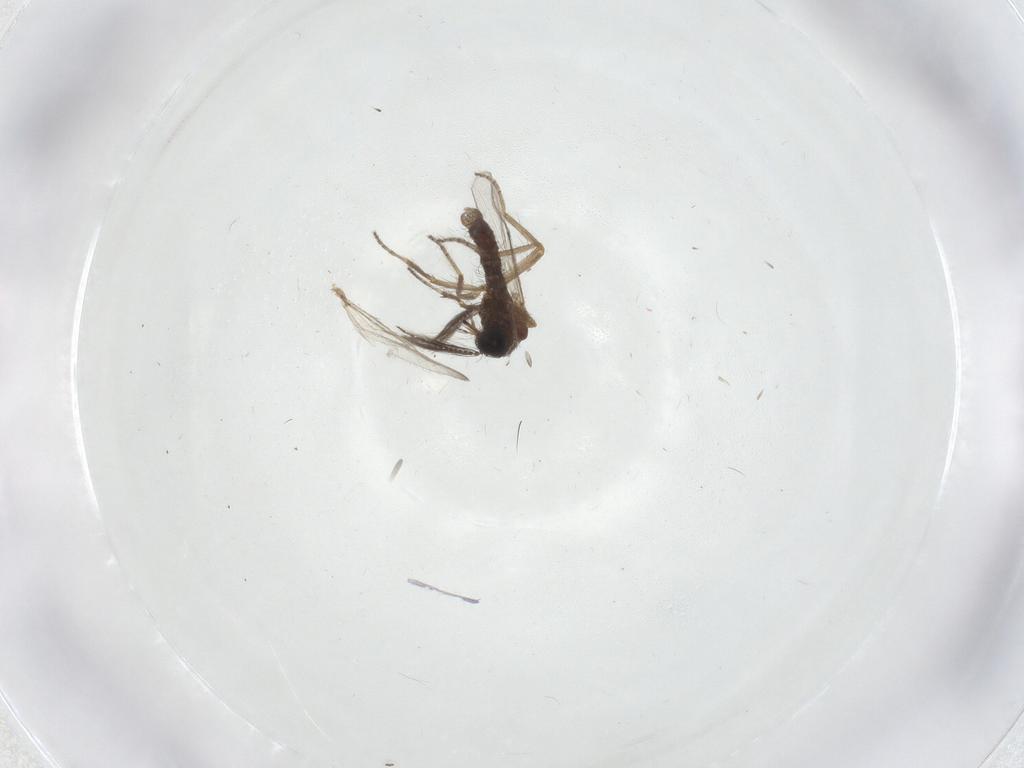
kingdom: Animalia
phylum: Arthropoda
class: Insecta
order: Diptera
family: Ceratopogonidae
